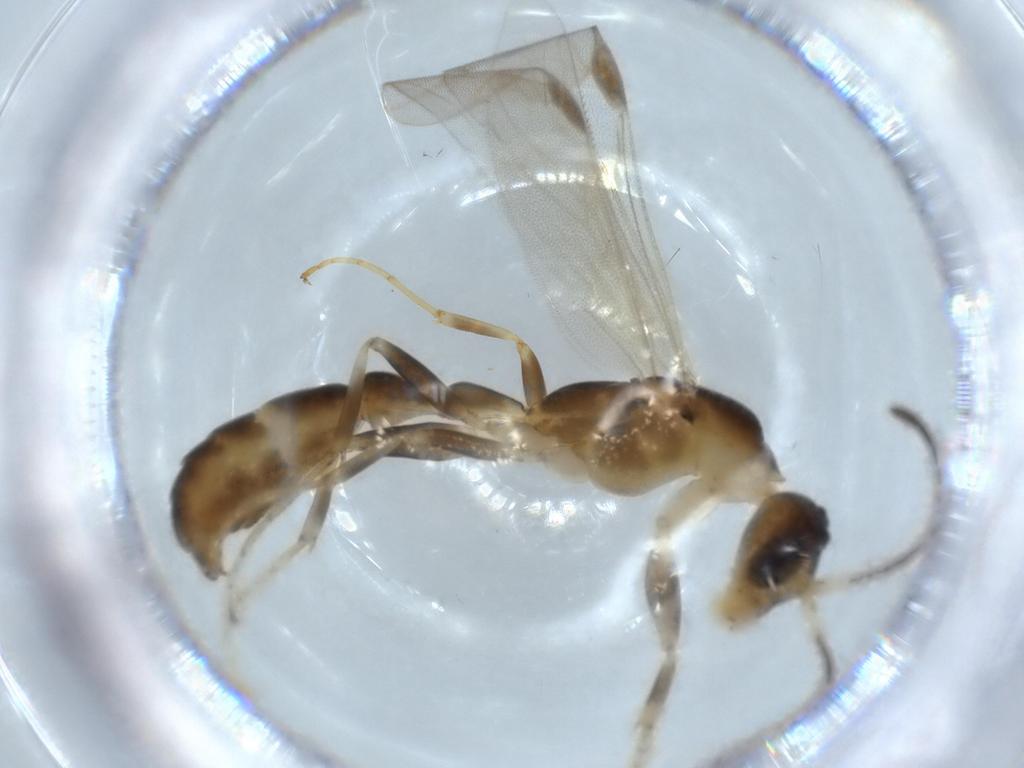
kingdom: Animalia
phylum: Arthropoda
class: Insecta
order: Hymenoptera
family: Formicidae
